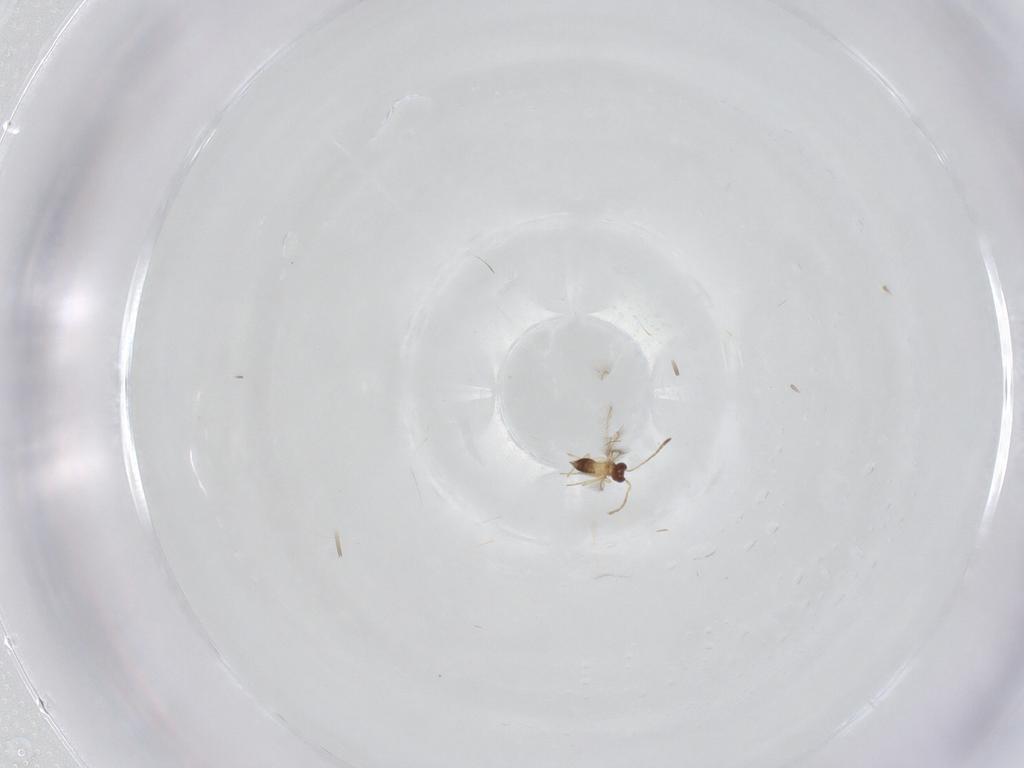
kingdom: Animalia
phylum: Arthropoda
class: Insecta
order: Hymenoptera
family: Mymaridae
